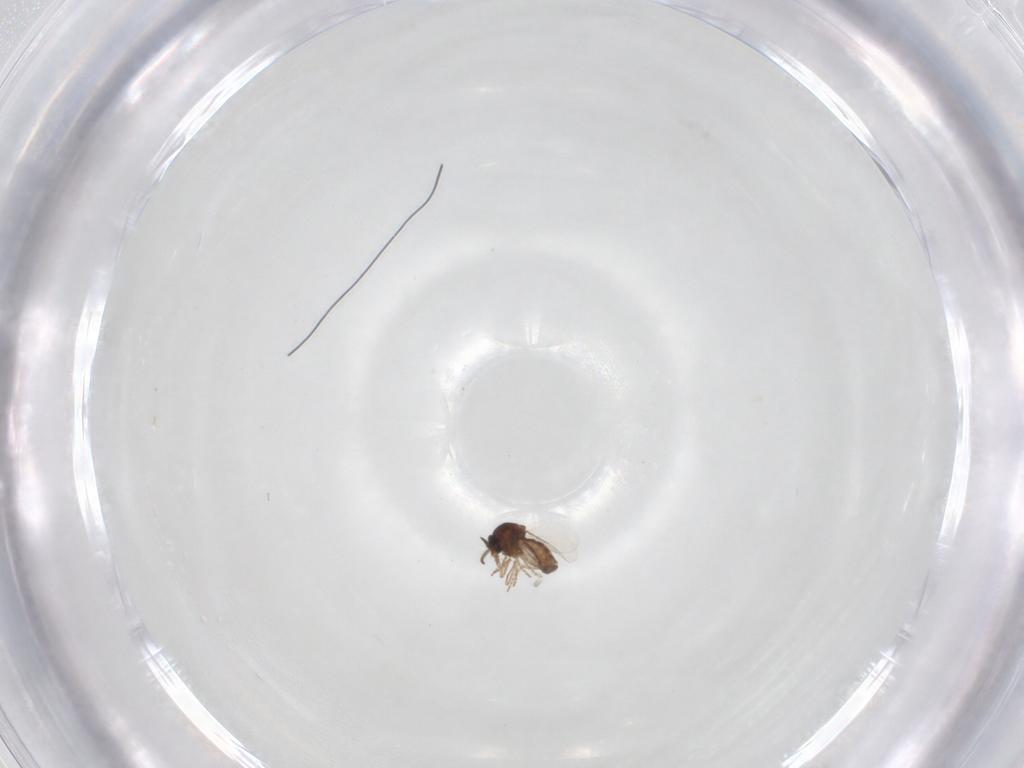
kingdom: Animalia
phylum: Arthropoda
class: Insecta
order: Diptera
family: Ceratopogonidae
